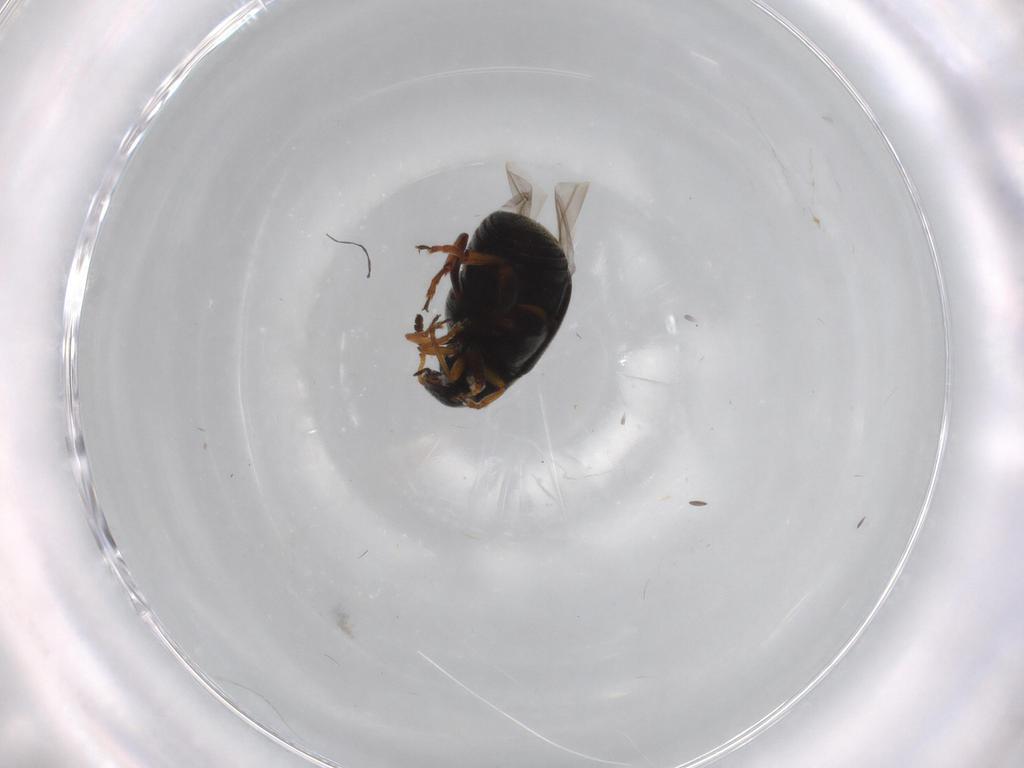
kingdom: Animalia
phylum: Arthropoda
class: Insecta
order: Coleoptera
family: Chrysomelidae
